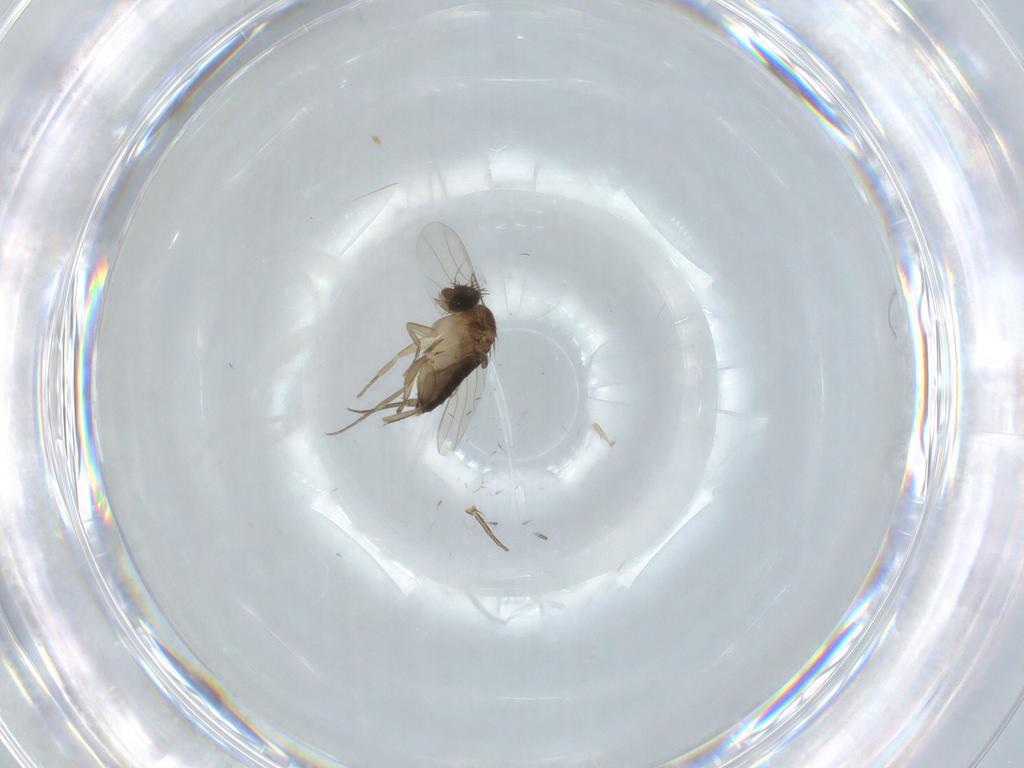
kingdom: Animalia
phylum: Arthropoda
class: Insecta
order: Diptera
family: Phoridae
